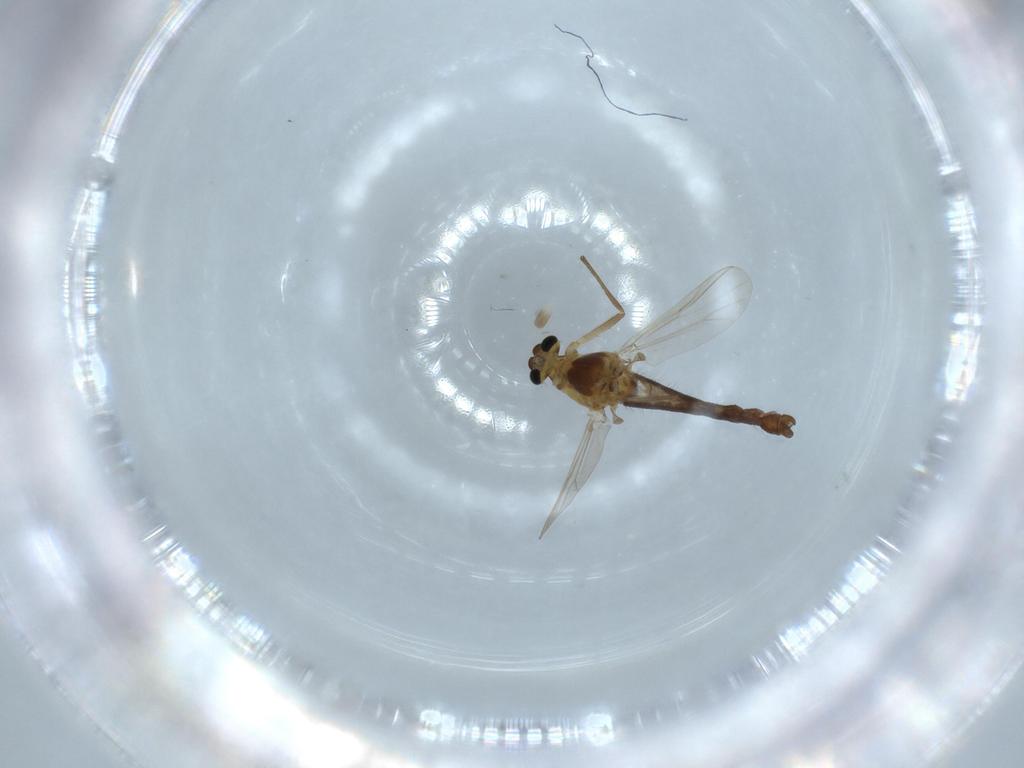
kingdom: Animalia
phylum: Arthropoda
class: Insecta
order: Diptera
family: Chironomidae
